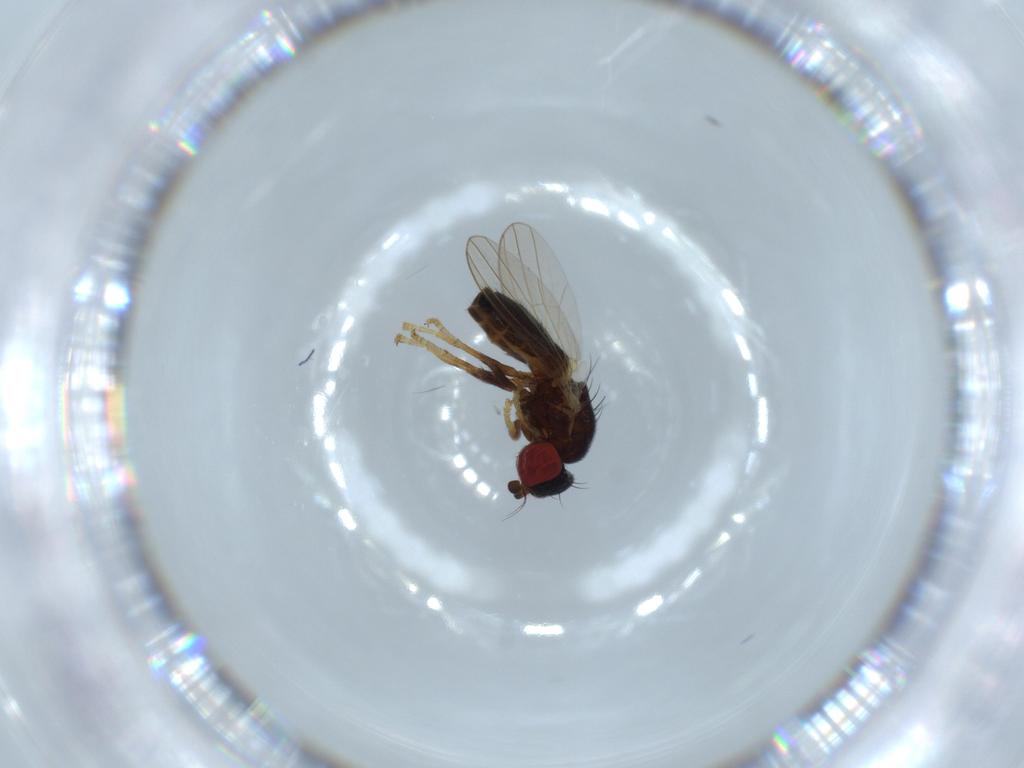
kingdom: Animalia
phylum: Arthropoda
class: Insecta
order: Diptera
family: Chamaemyiidae
